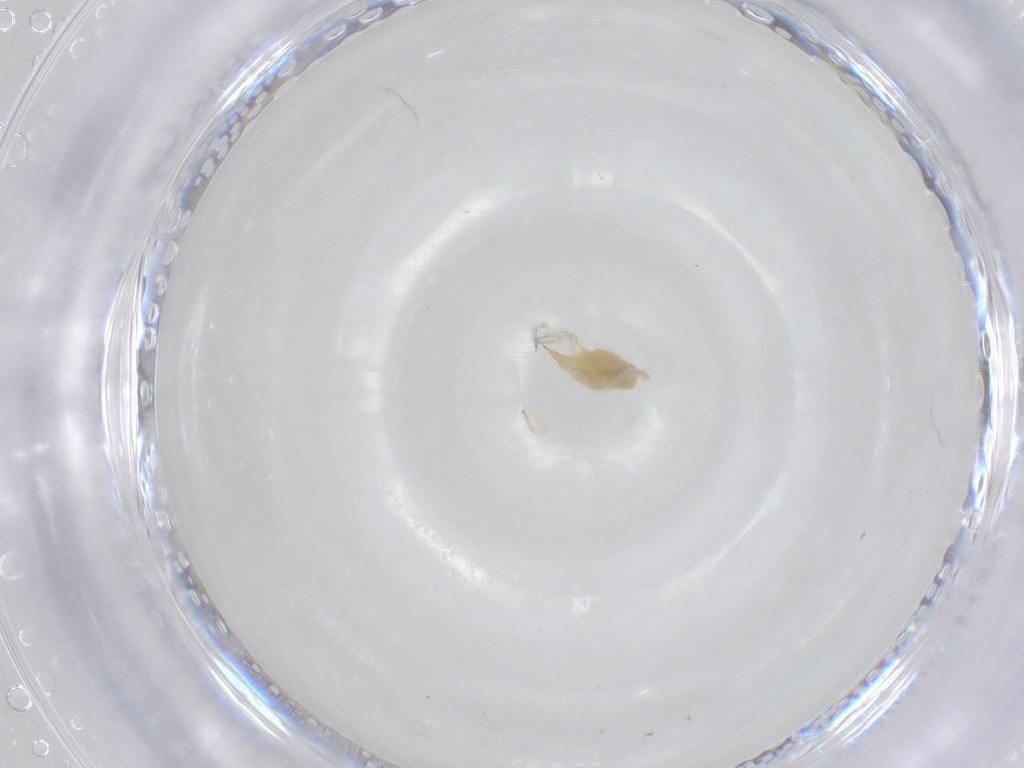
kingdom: Animalia
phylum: Arthropoda
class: Arachnida
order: Trombidiformes
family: Bdellidae
